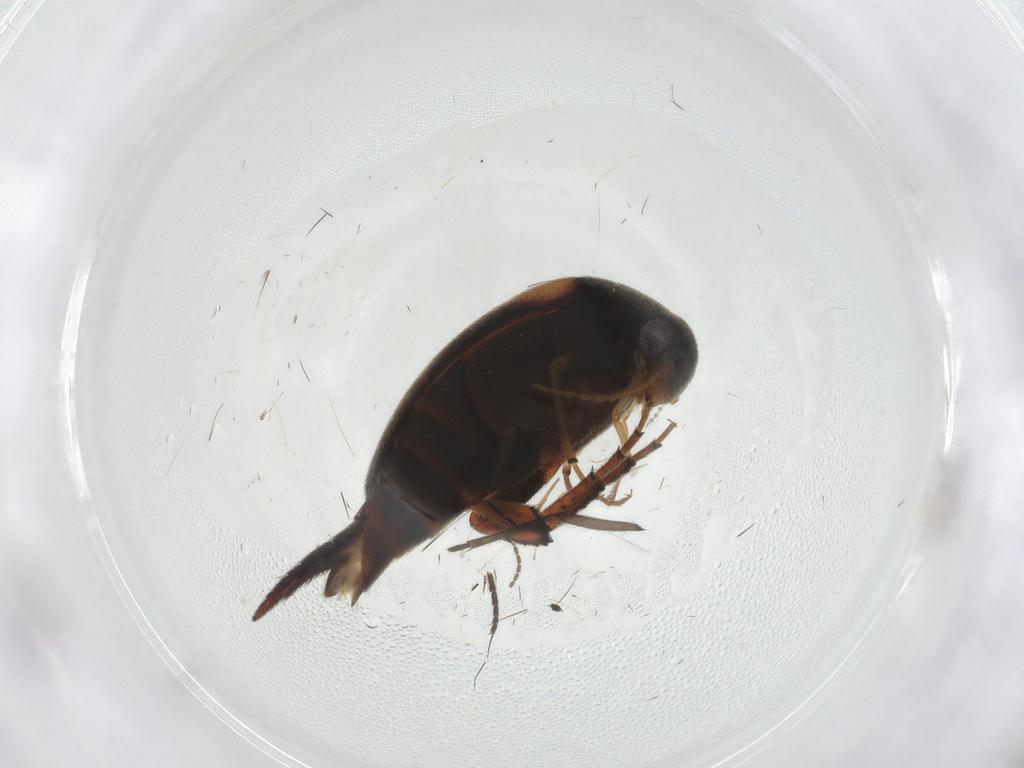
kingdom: Animalia
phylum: Arthropoda
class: Insecta
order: Coleoptera
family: Mordellidae
